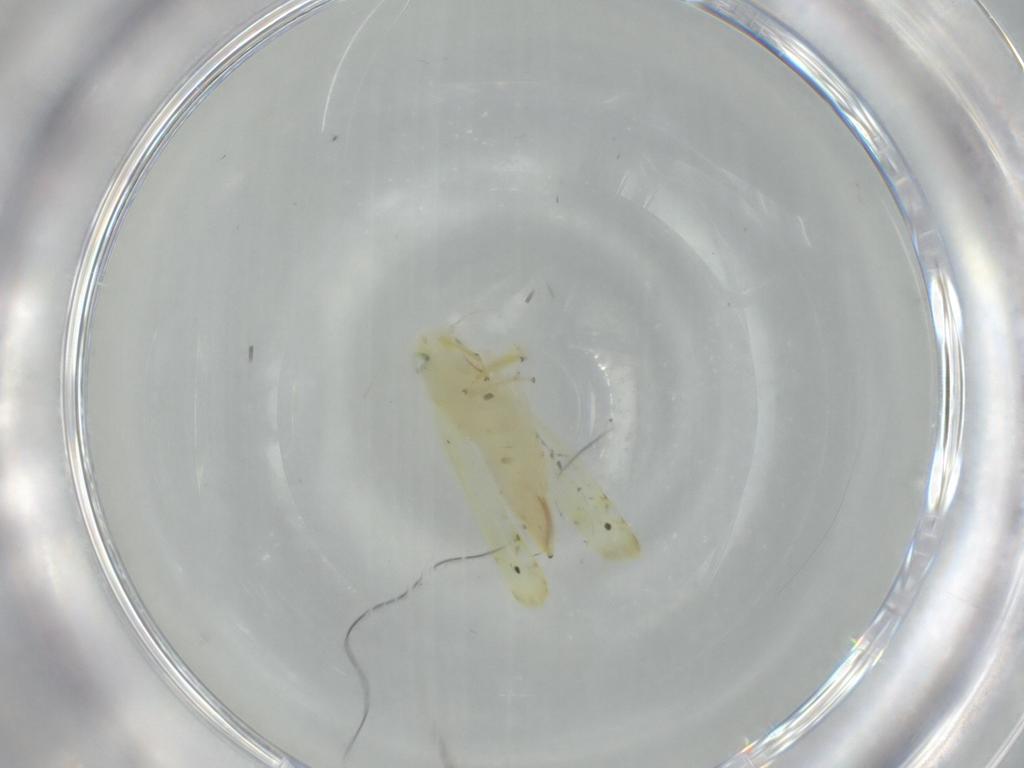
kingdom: Animalia
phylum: Arthropoda
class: Insecta
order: Hemiptera
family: Cicadellidae
